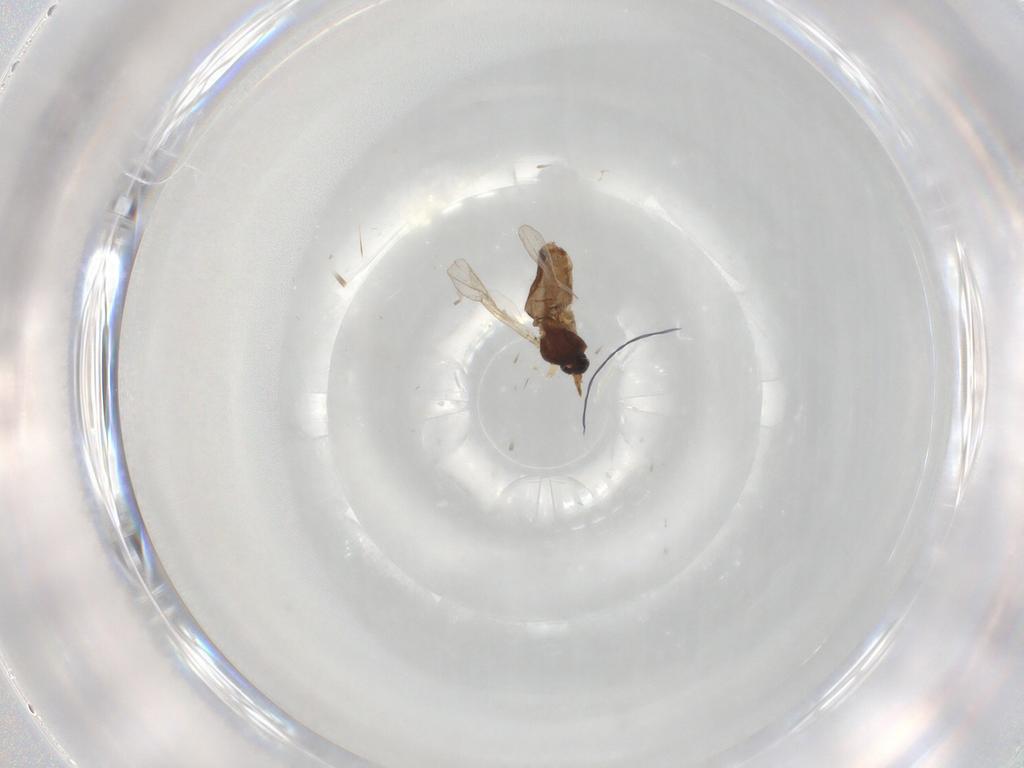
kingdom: Animalia
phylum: Arthropoda
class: Insecta
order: Diptera
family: Ceratopogonidae
